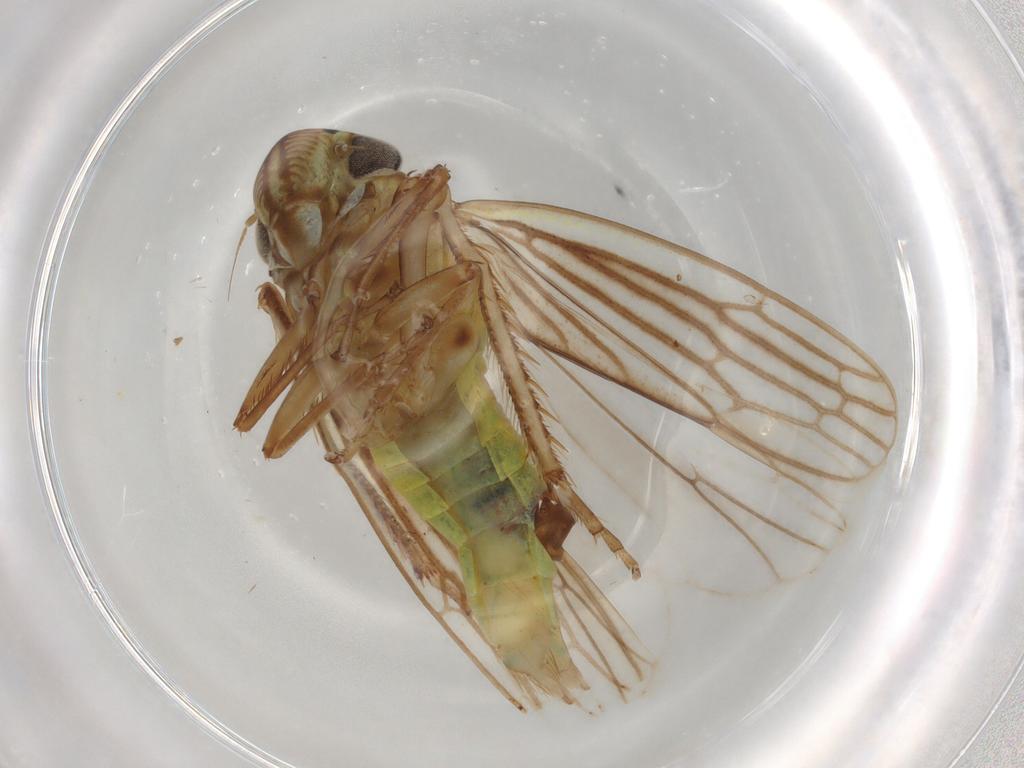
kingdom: Animalia
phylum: Arthropoda
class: Insecta
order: Hemiptera
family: Cicadellidae
